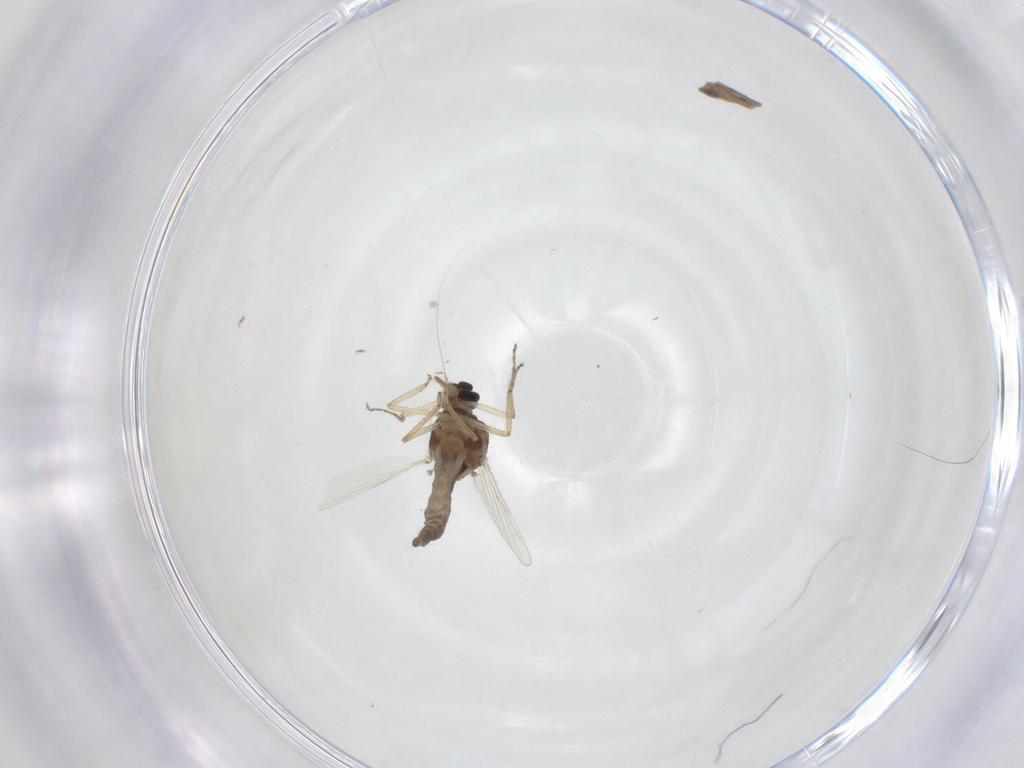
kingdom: Animalia
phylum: Arthropoda
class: Insecta
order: Diptera
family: Ceratopogonidae
